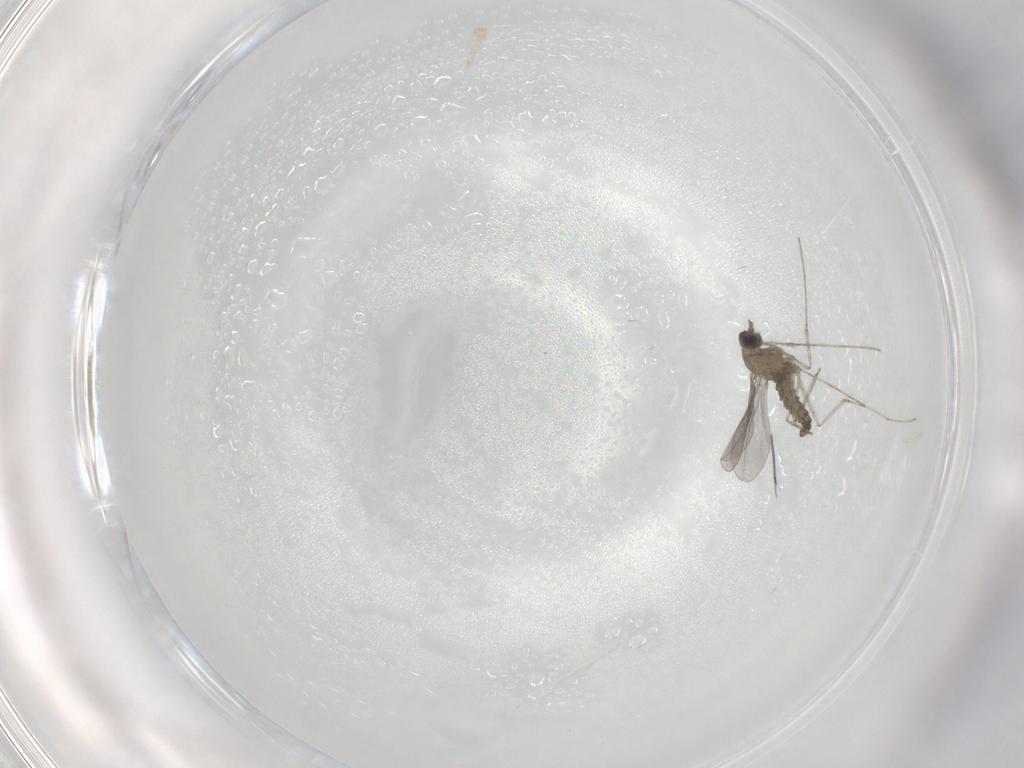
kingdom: Animalia
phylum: Arthropoda
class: Insecta
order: Diptera
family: Cecidomyiidae
